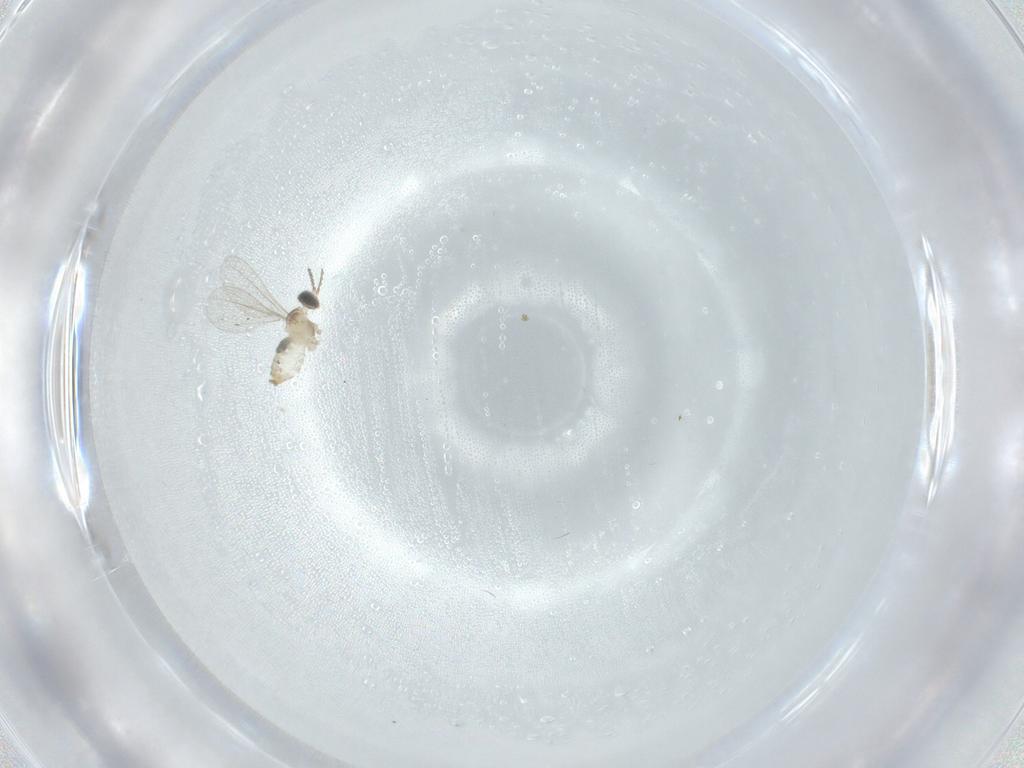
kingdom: Animalia
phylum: Arthropoda
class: Insecta
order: Diptera
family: Cecidomyiidae
